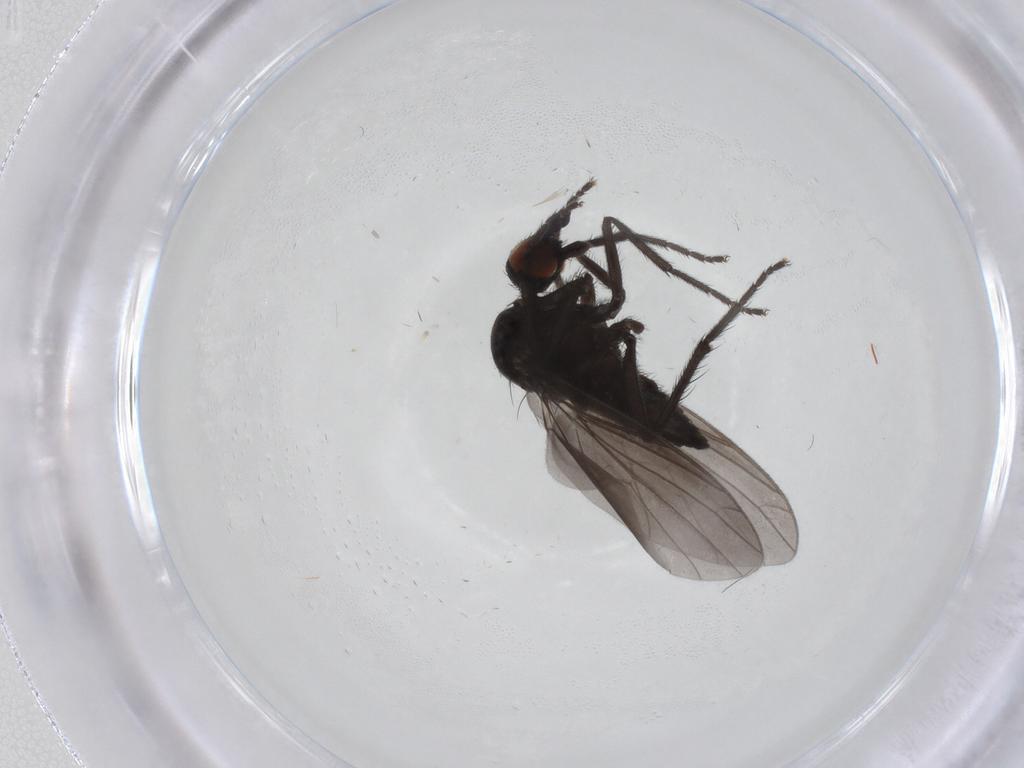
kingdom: Animalia
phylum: Arthropoda
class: Insecta
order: Diptera
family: Empididae
